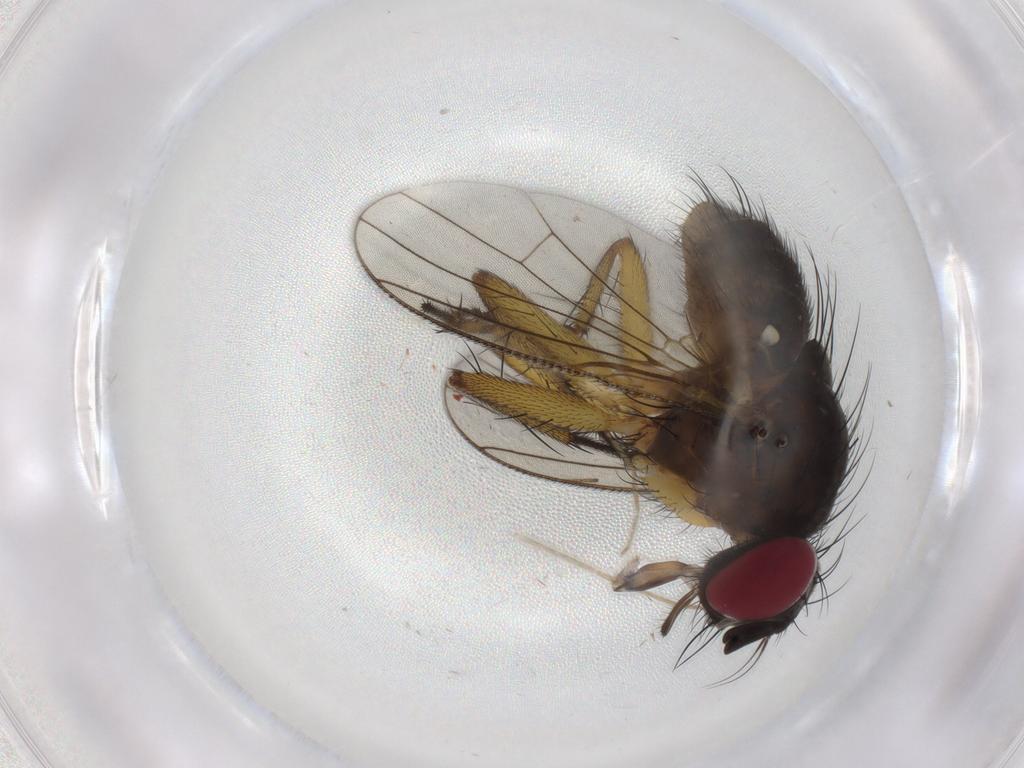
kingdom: Animalia
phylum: Arthropoda
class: Insecta
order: Diptera
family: Muscidae
